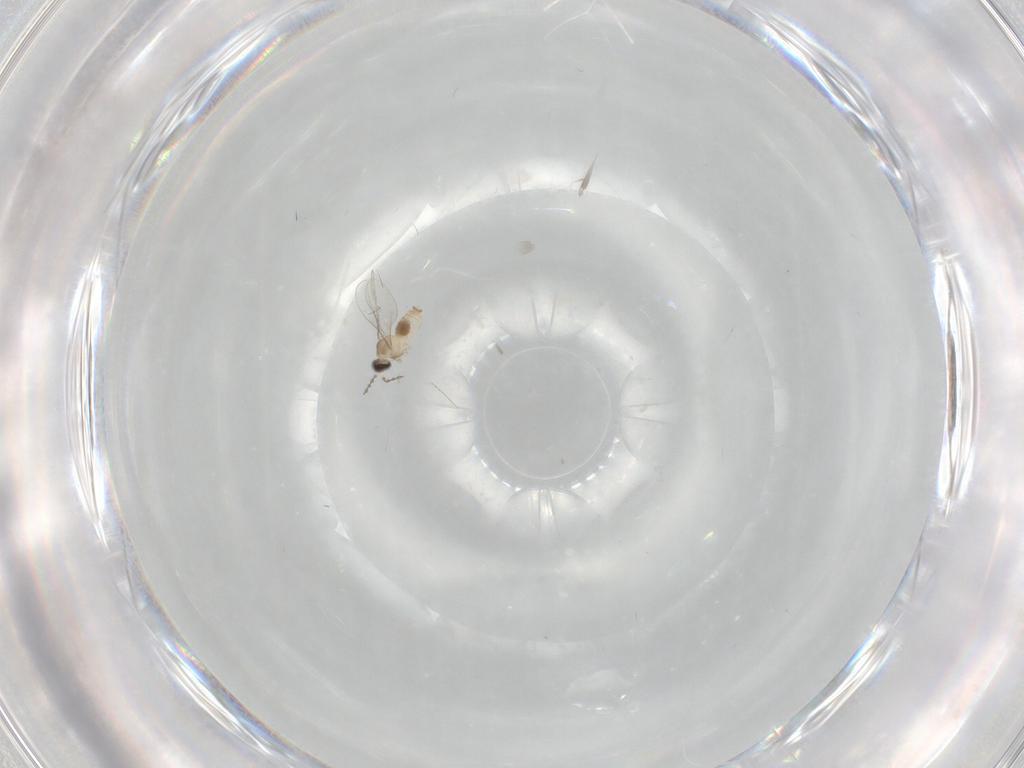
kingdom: Animalia
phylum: Arthropoda
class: Insecta
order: Diptera
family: Cecidomyiidae
